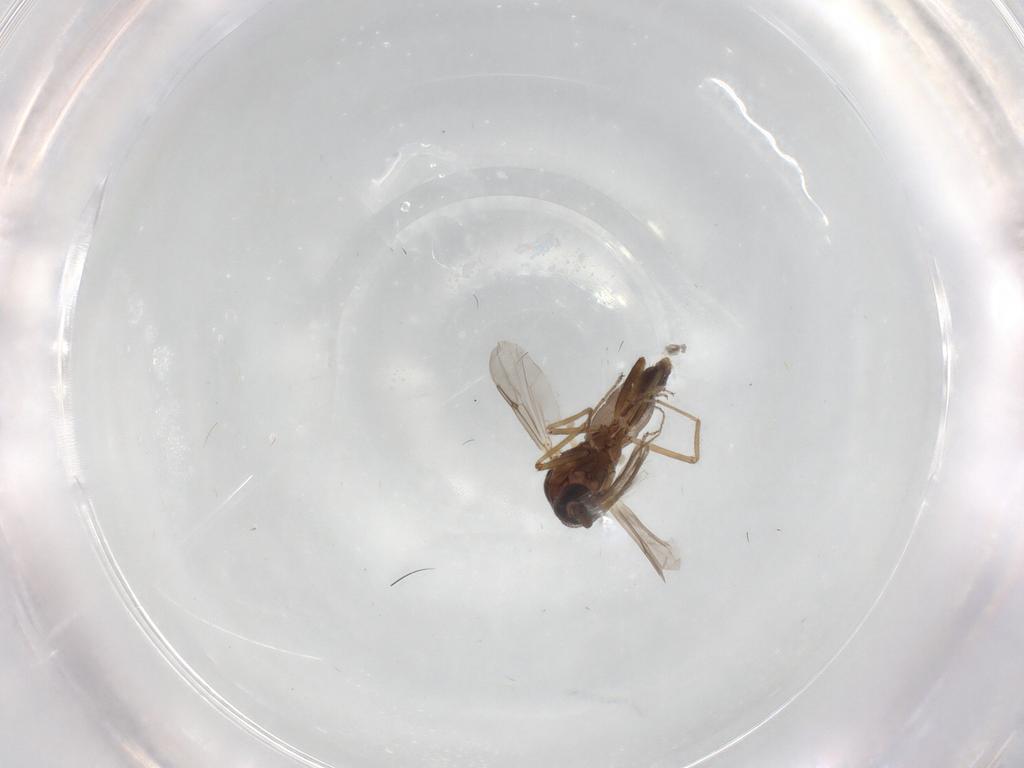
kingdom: Animalia
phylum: Arthropoda
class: Insecta
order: Diptera
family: Ceratopogonidae
